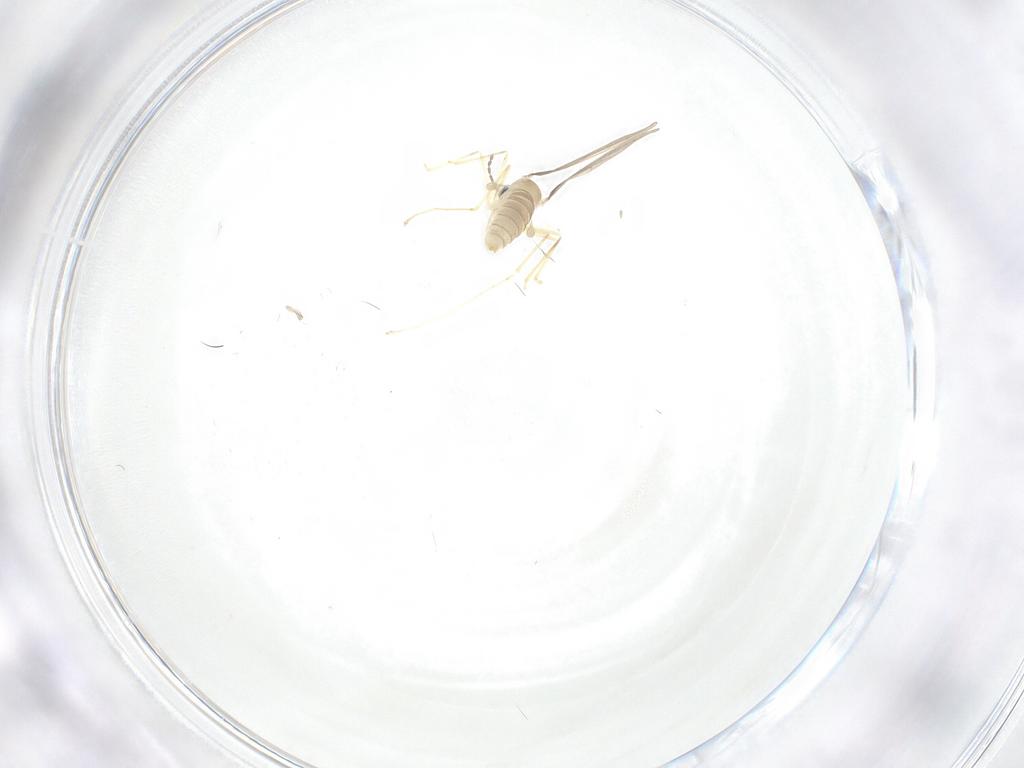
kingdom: Animalia
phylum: Arthropoda
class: Insecta
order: Diptera
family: Cecidomyiidae
